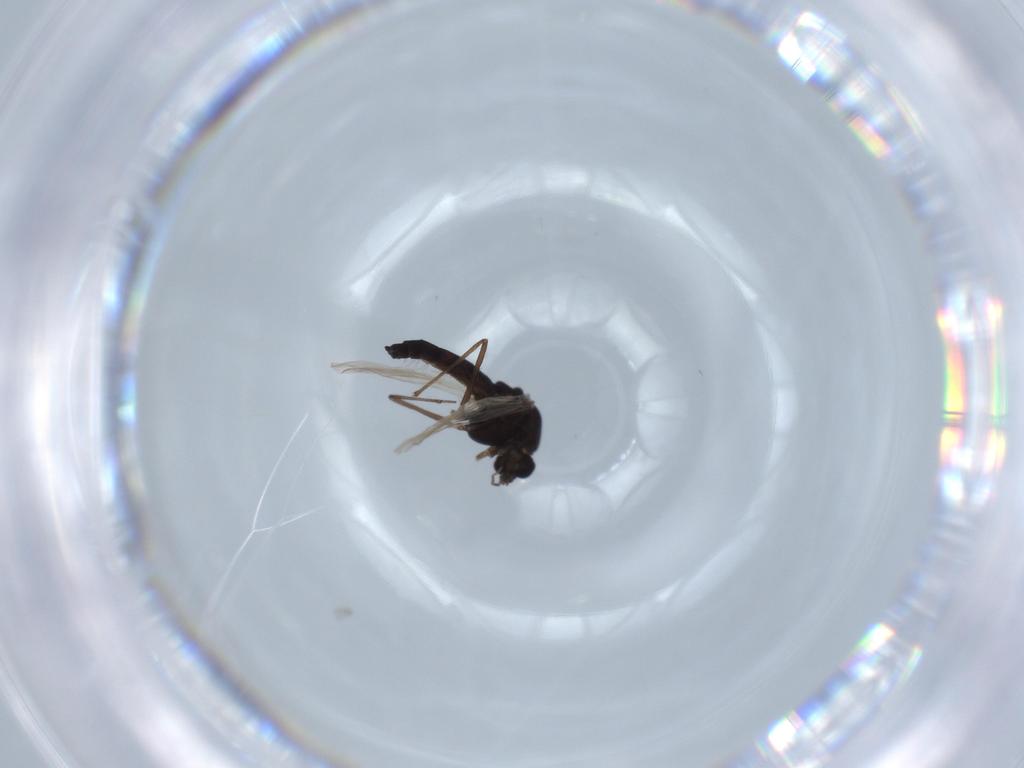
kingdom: Animalia
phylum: Arthropoda
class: Insecta
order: Diptera
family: Chironomidae
